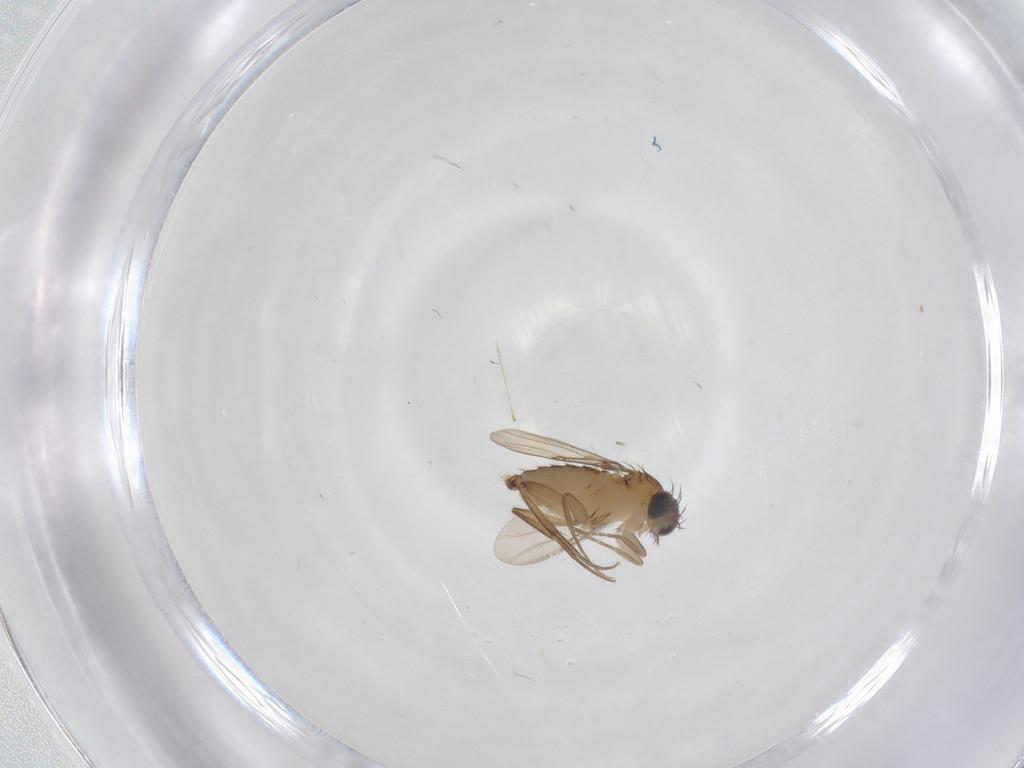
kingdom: Animalia
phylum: Arthropoda
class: Insecta
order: Diptera
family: Phoridae
